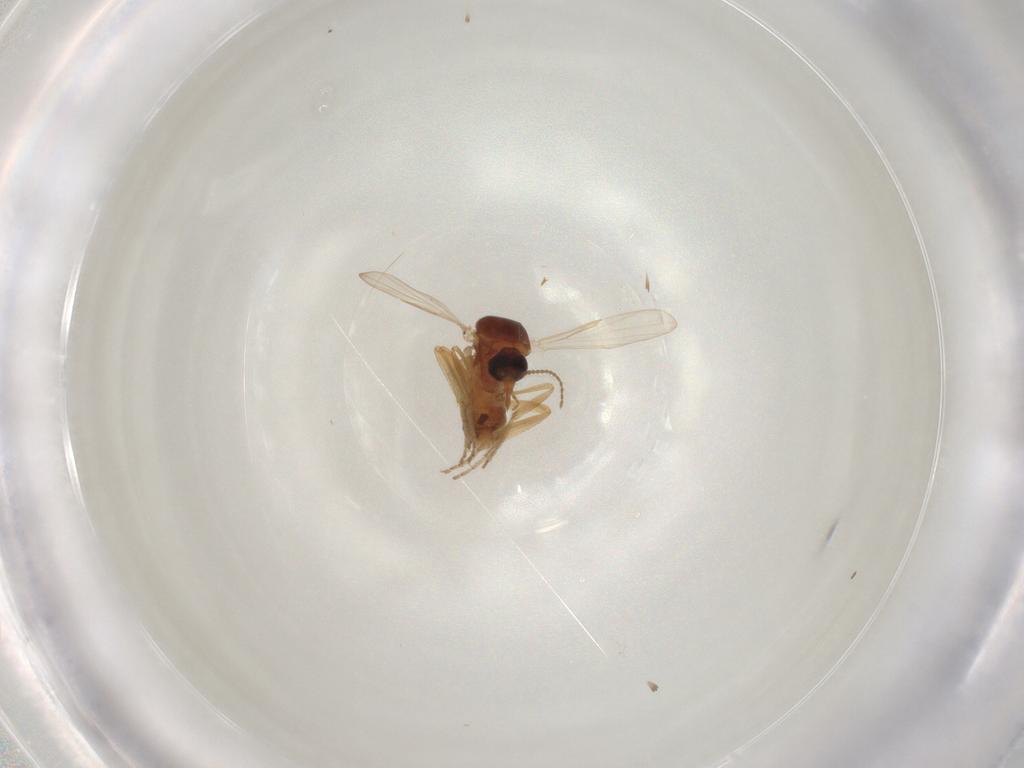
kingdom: Animalia
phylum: Arthropoda
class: Insecta
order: Diptera
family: Ceratopogonidae
